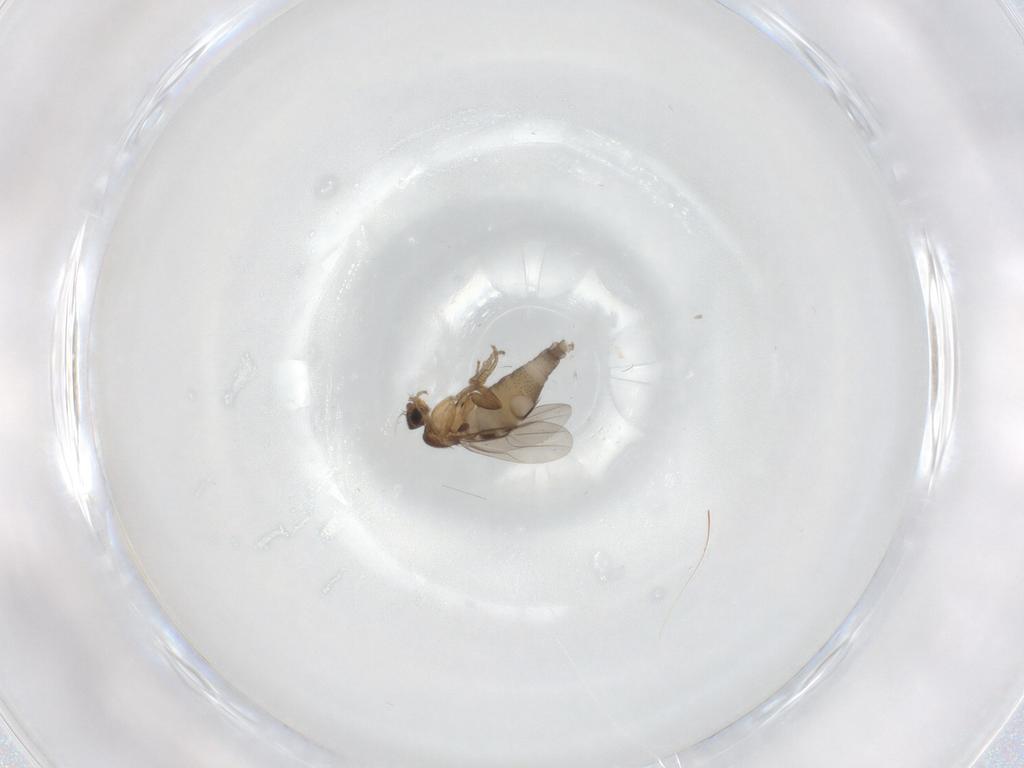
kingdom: Animalia
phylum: Arthropoda
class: Insecta
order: Diptera
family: Phoridae
